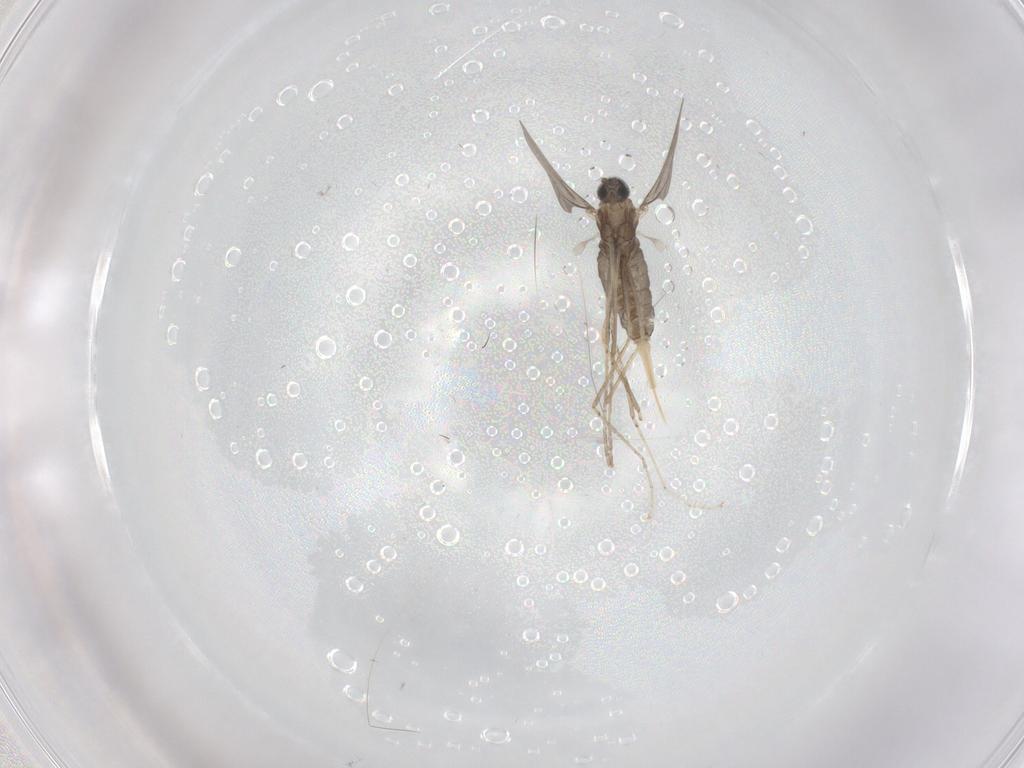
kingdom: Animalia
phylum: Arthropoda
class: Insecta
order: Diptera
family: Cecidomyiidae
